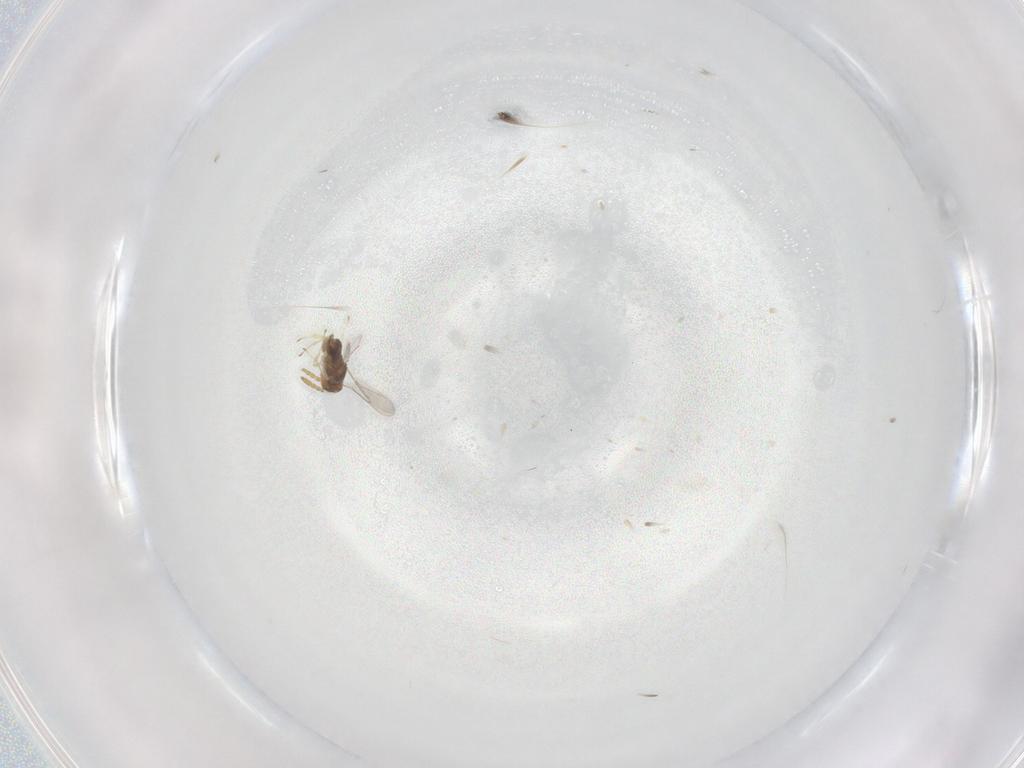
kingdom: Animalia
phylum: Arthropoda
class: Insecta
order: Hymenoptera
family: Aphelinidae
